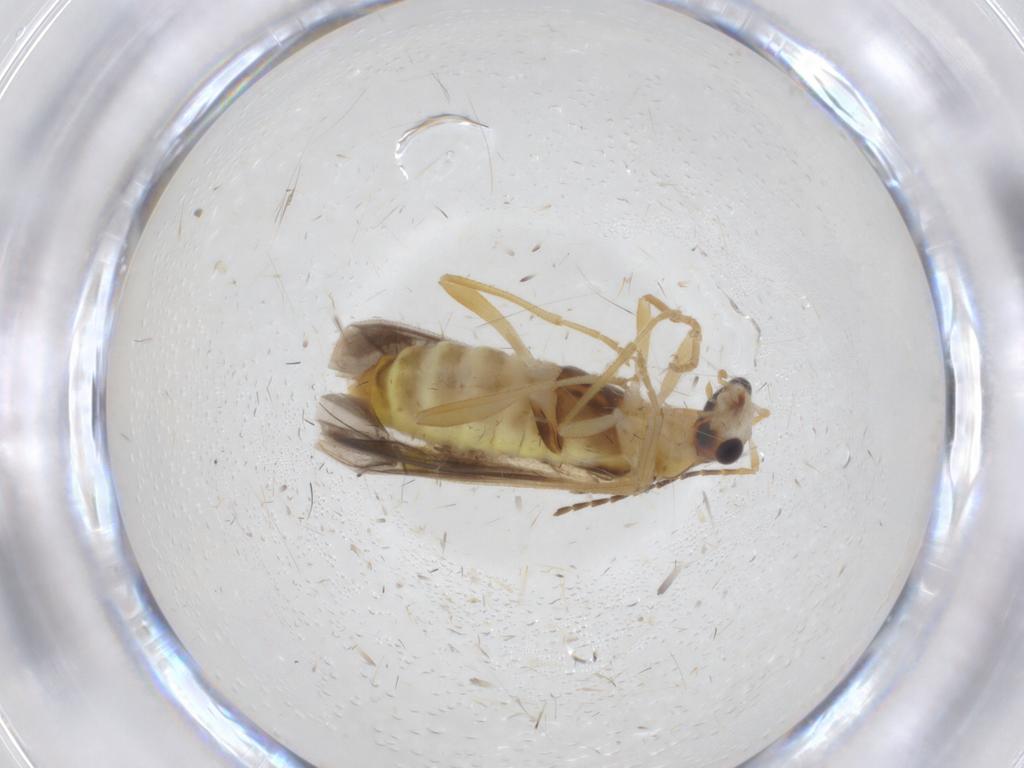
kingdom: Animalia
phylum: Arthropoda
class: Insecta
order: Coleoptera
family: Cantharidae
